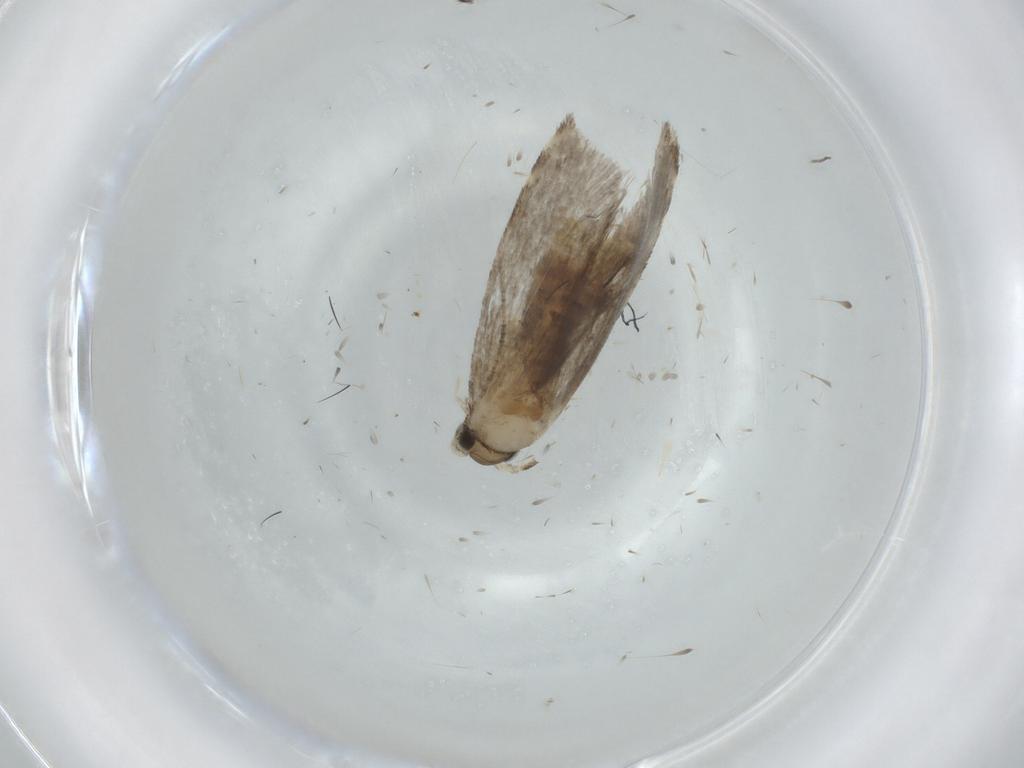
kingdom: Animalia
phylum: Arthropoda
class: Insecta
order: Lepidoptera
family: Tineidae
